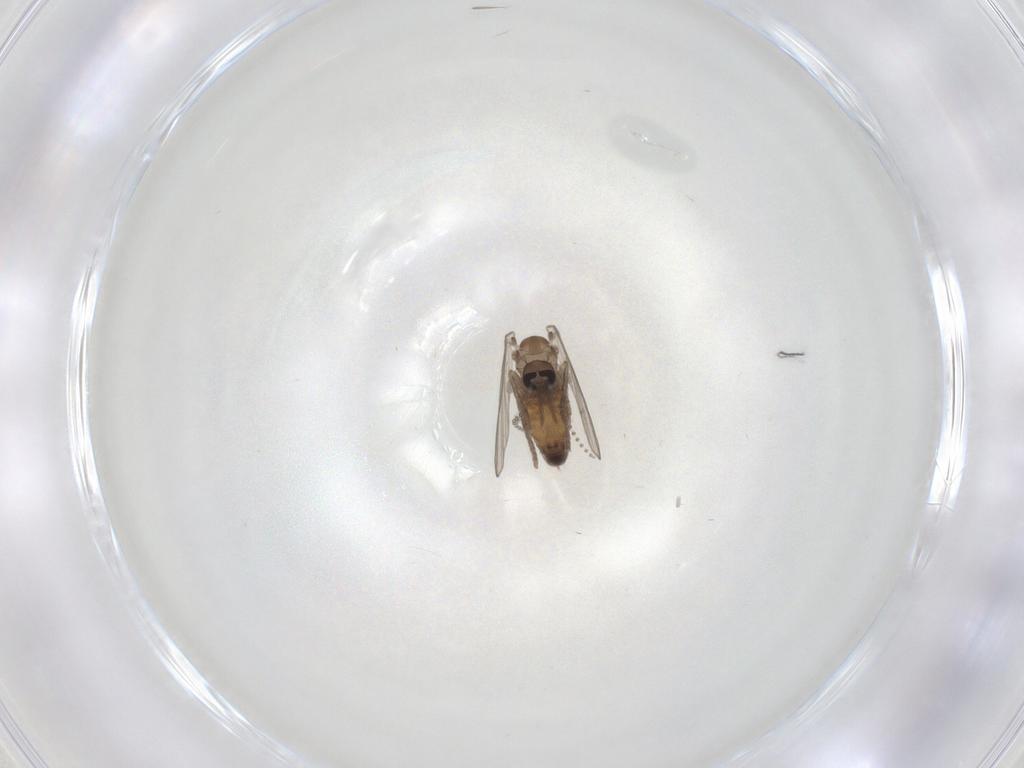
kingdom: Animalia
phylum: Arthropoda
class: Insecta
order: Diptera
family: Psychodidae
